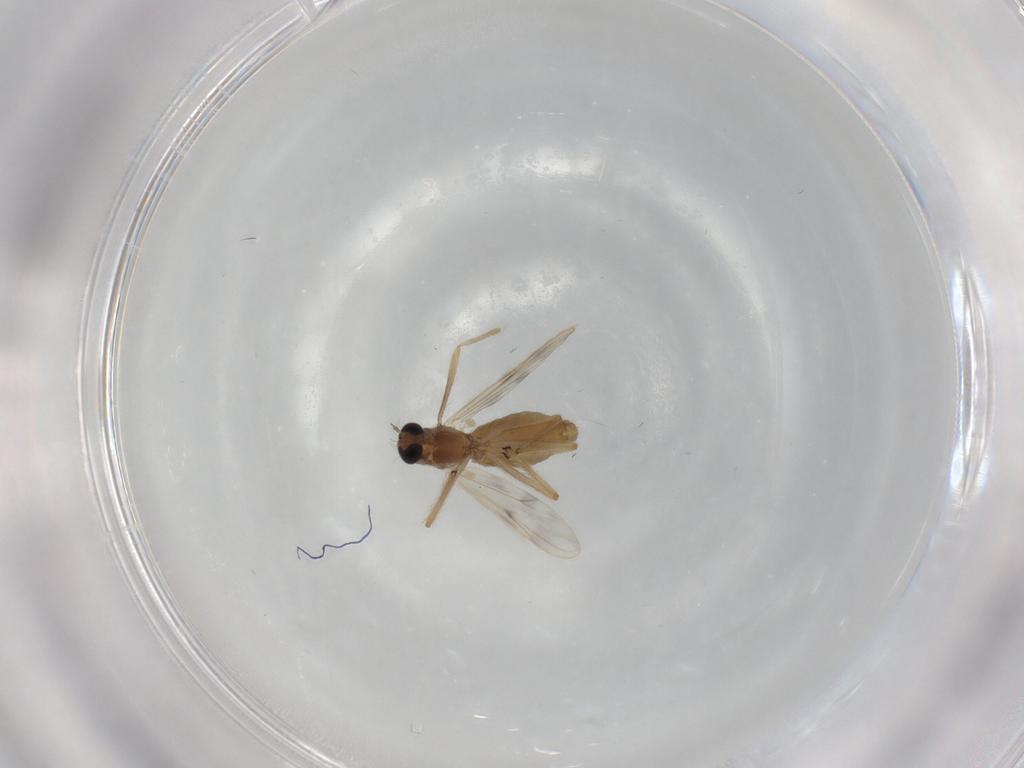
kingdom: Animalia
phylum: Arthropoda
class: Insecta
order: Diptera
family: Chironomidae
